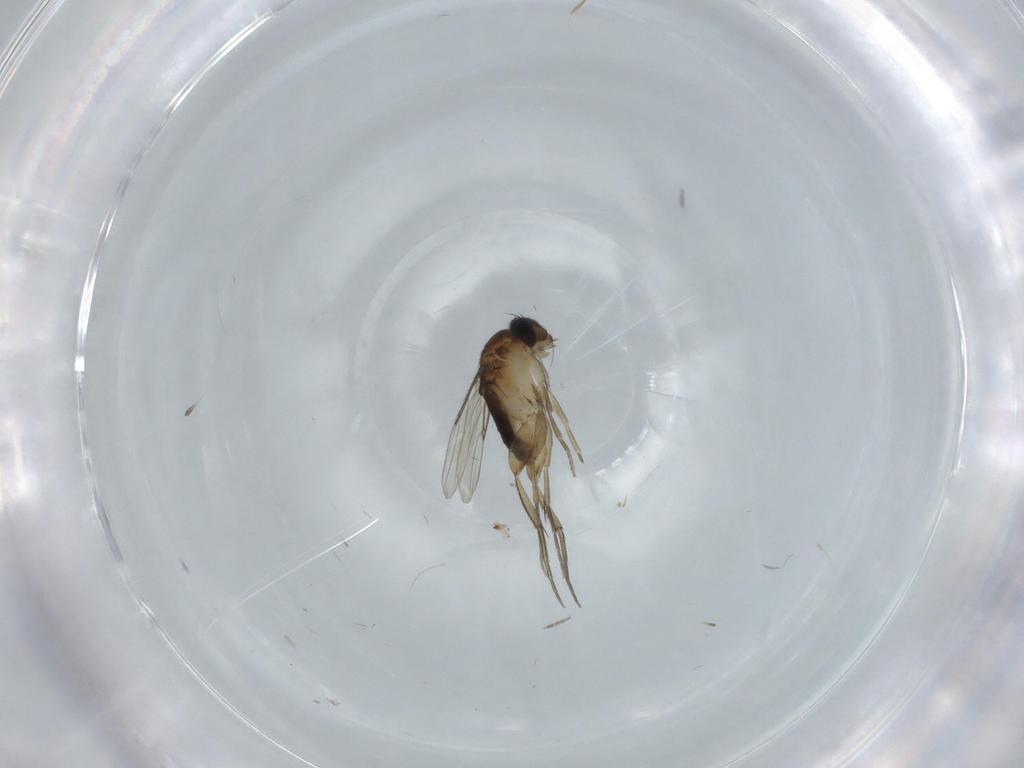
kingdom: Animalia
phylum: Arthropoda
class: Insecta
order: Diptera
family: Phoridae
